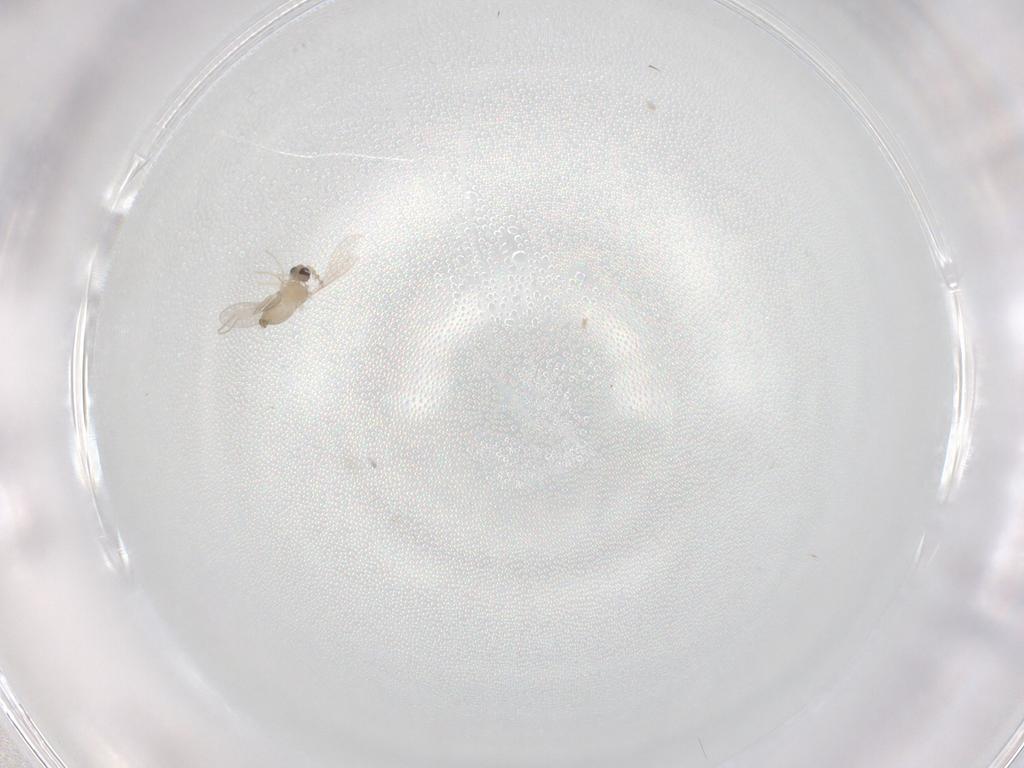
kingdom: Animalia
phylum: Arthropoda
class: Insecta
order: Diptera
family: Cecidomyiidae
